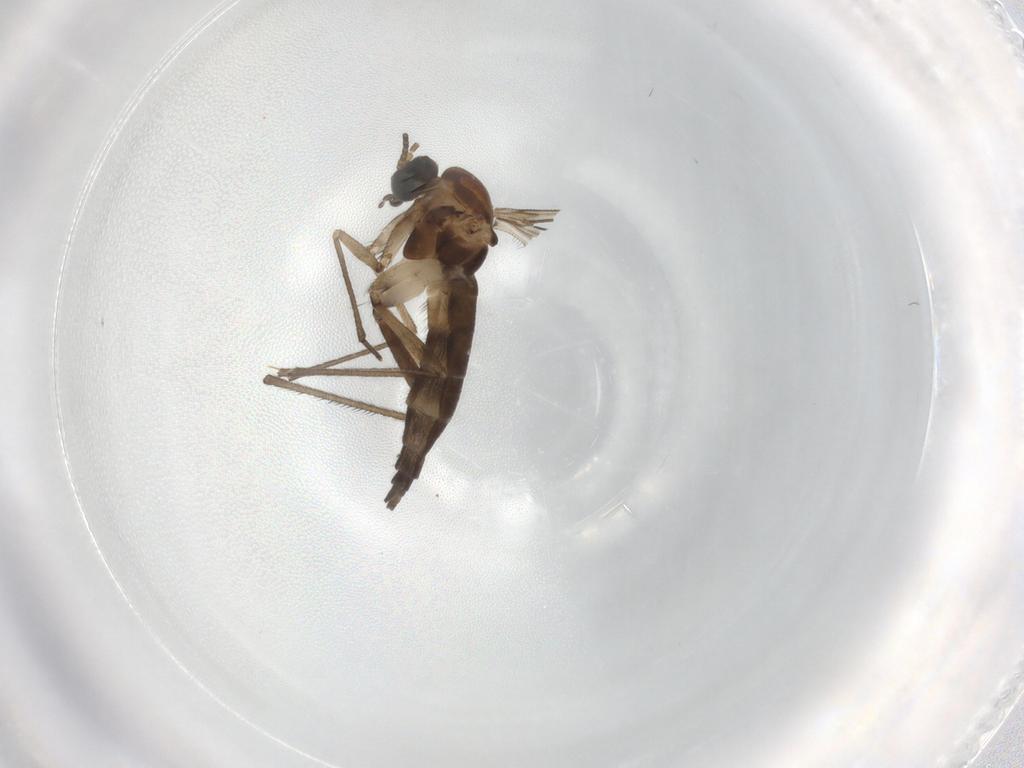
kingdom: Animalia
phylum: Arthropoda
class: Insecta
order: Diptera
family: Sciaridae
